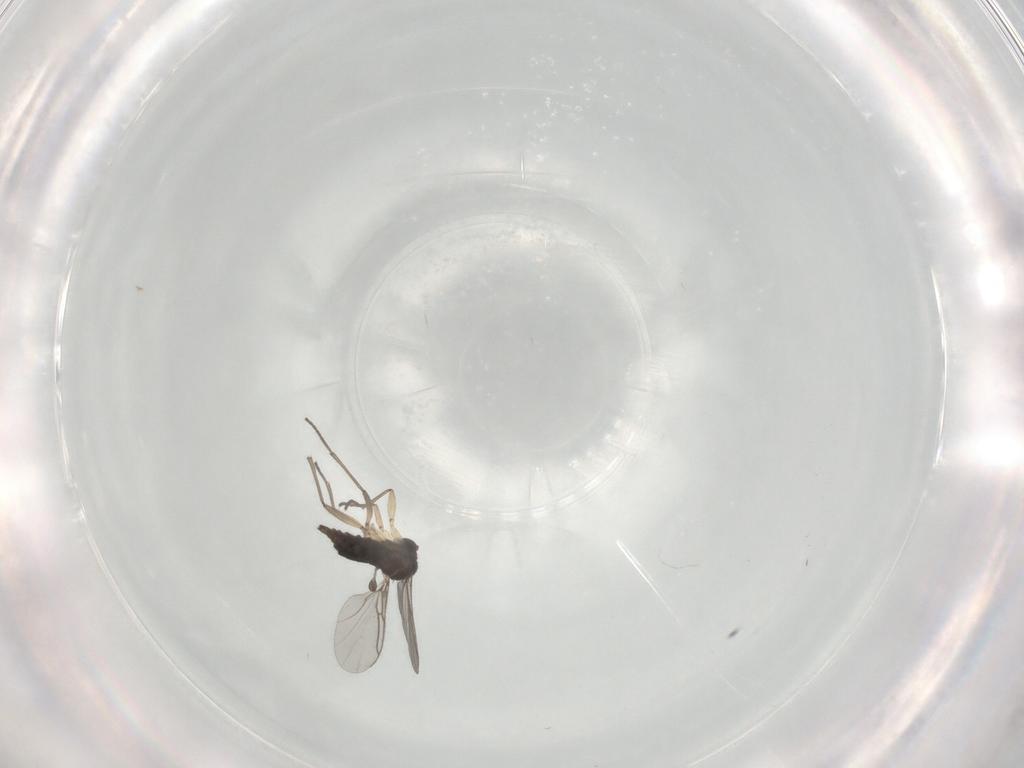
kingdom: Animalia
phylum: Arthropoda
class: Insecta
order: Diptera
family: Sciaridae
